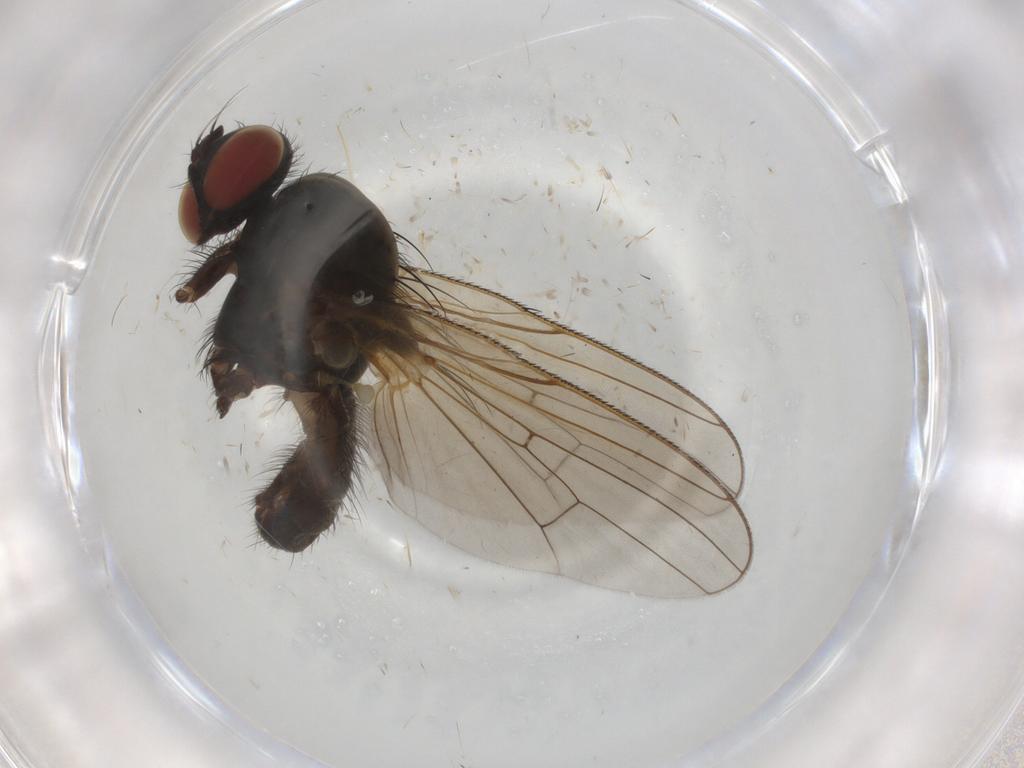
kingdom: Animalia
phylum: Arthropoda
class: Insecta
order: Diptera
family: Anthomyiidae
